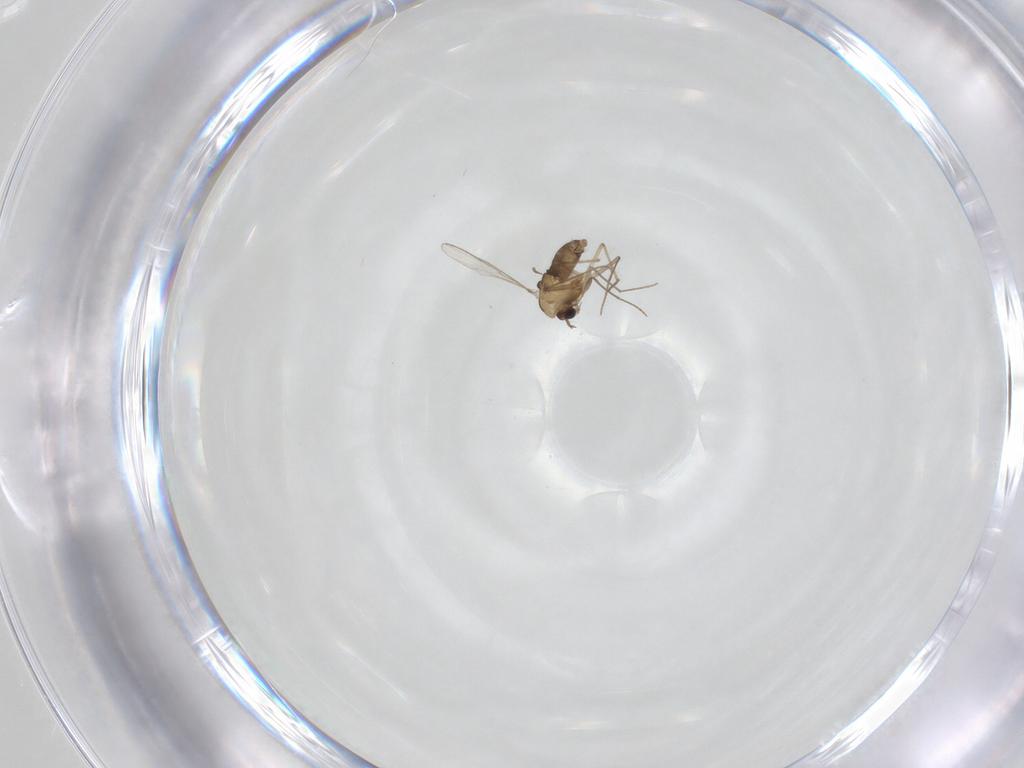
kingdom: Animalia
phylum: Arthropoda
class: Insecta
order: Diptera
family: Chironomidae
